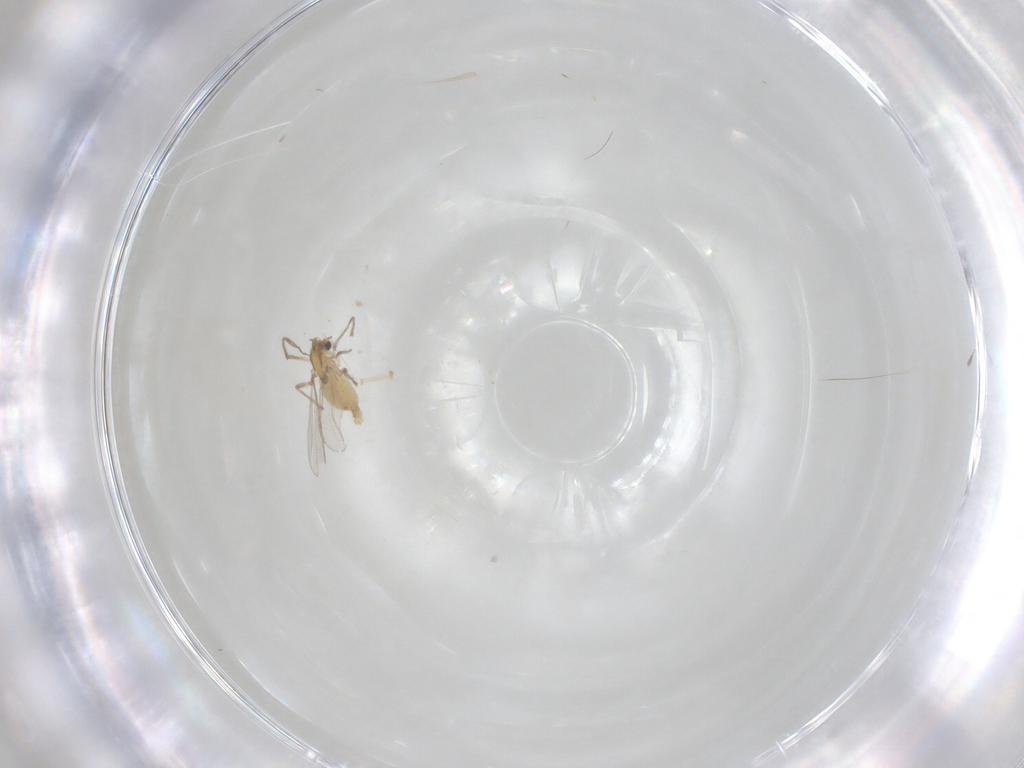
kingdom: Animalia
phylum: Arthropoda
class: Insecta
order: Diptera
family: Chironomidae
